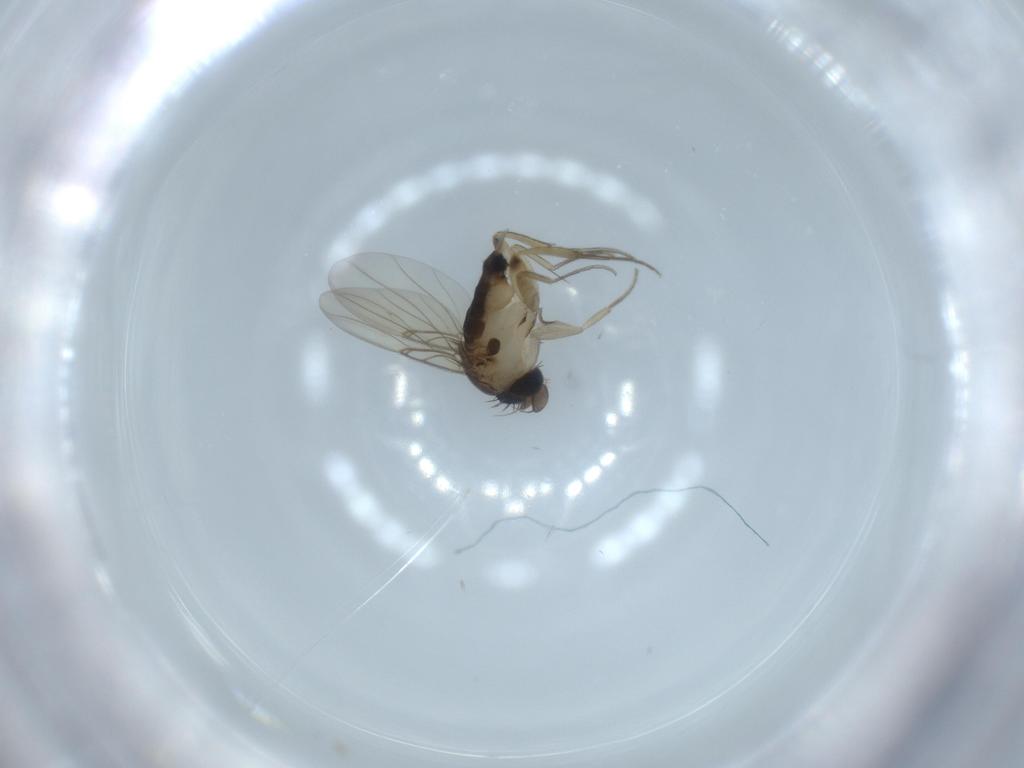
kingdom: Animalia
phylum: Arthropoda
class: Insecta
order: Diptera
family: Phoridae
